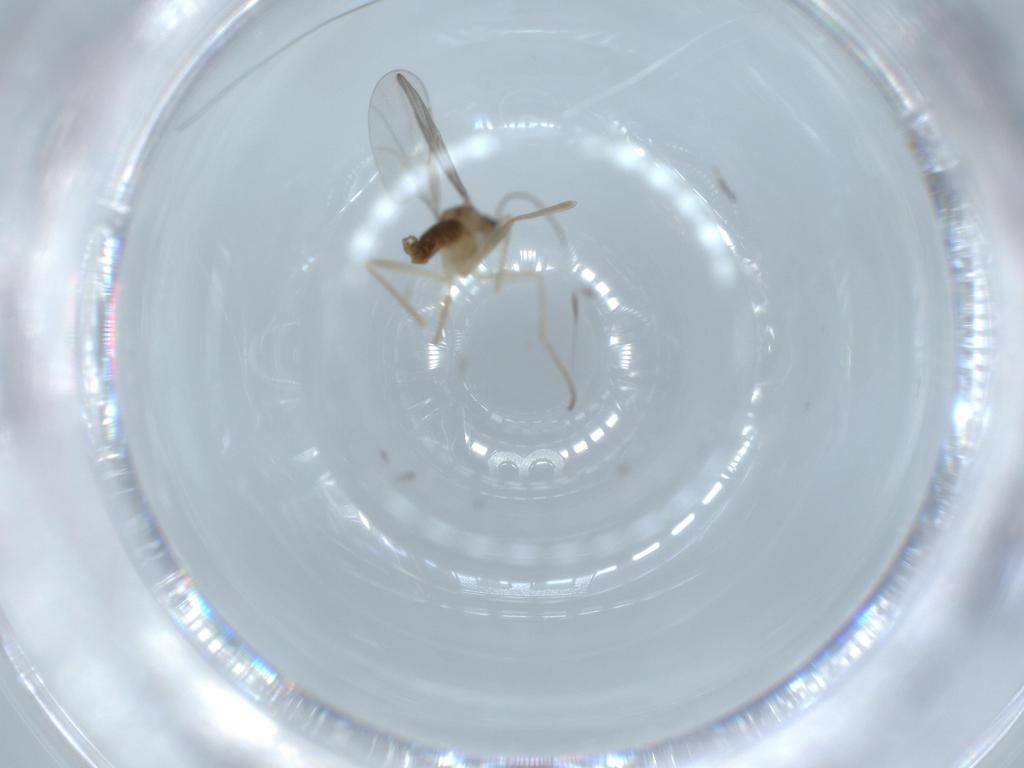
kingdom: Animalia
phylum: Arthropoda
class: Insecta
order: Diptera
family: Cecidomyiidae
